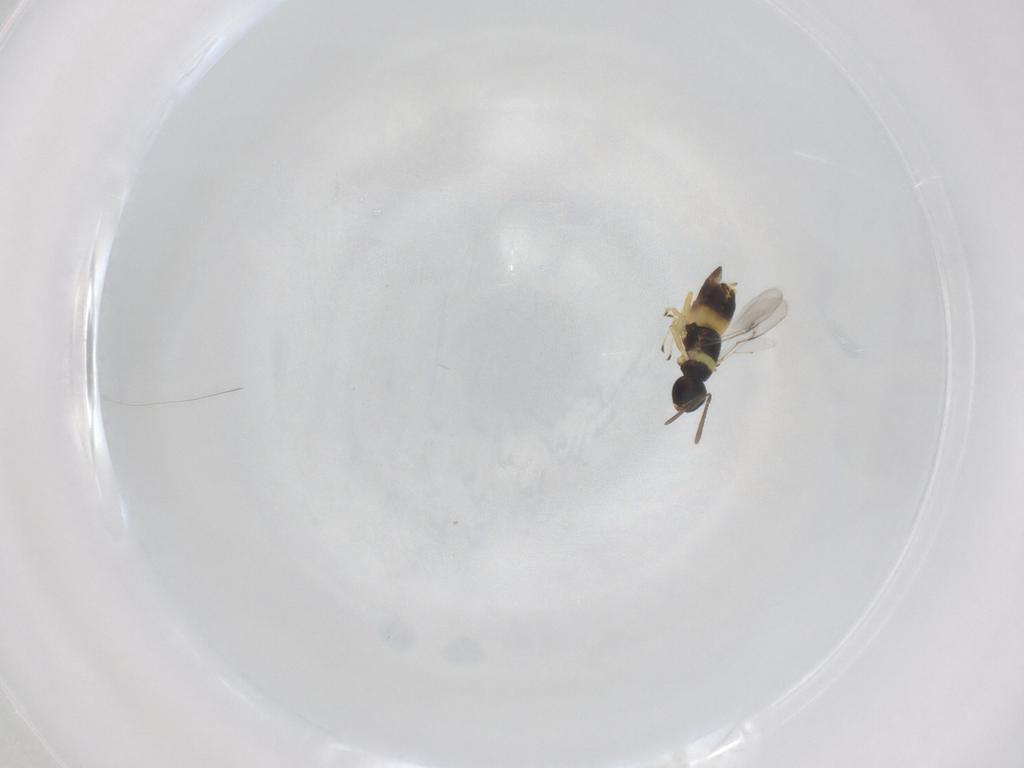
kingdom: Animalia
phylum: Arthropoda
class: Insecta
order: Hymenoptera
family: Encyrtidae
